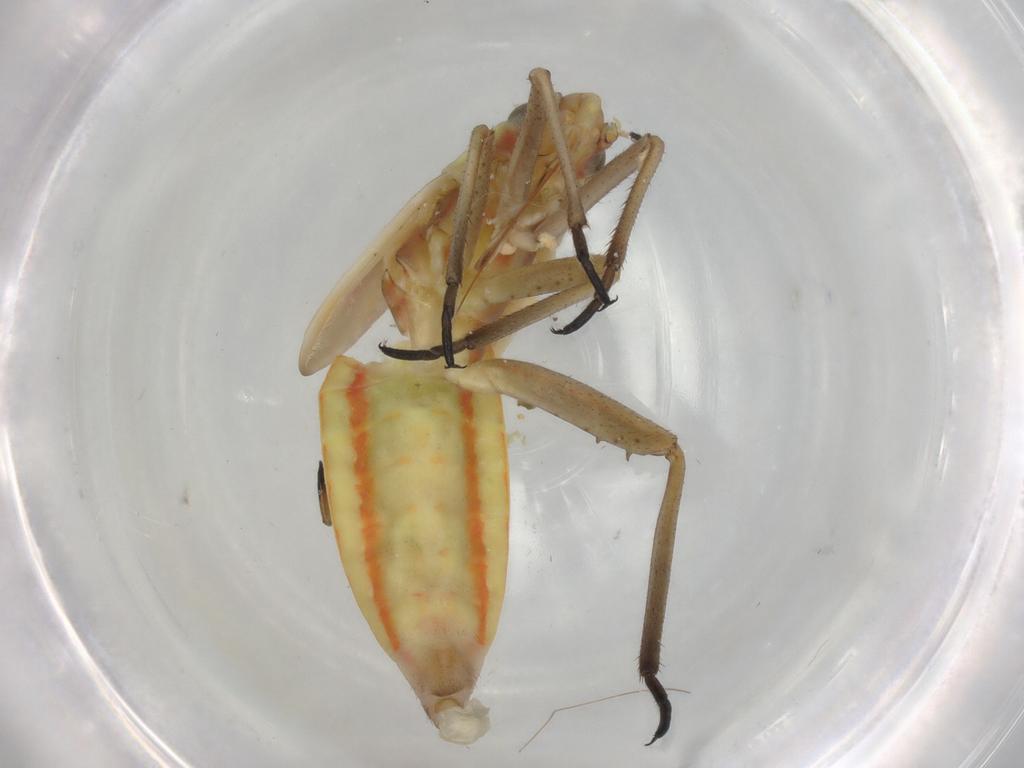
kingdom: Animalia
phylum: Arthropoda
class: Insecta
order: Hemiptera
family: Miridae
